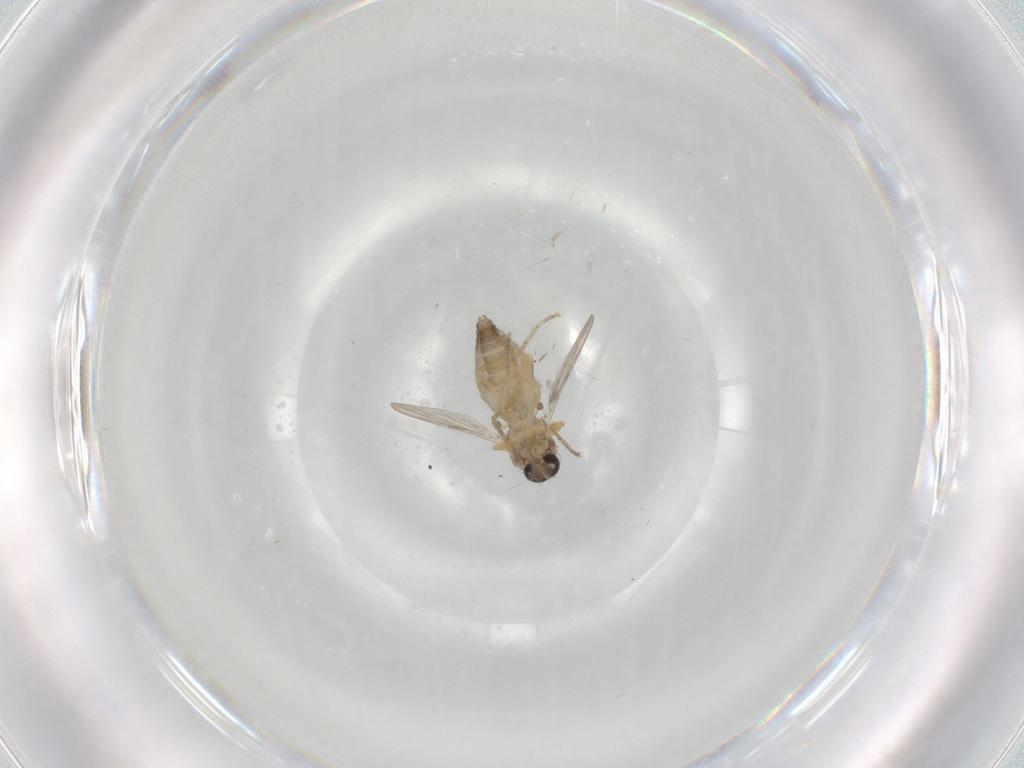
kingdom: Animalia
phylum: Arthropoda
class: Insecta
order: Diptera
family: Ceratopogonidae
